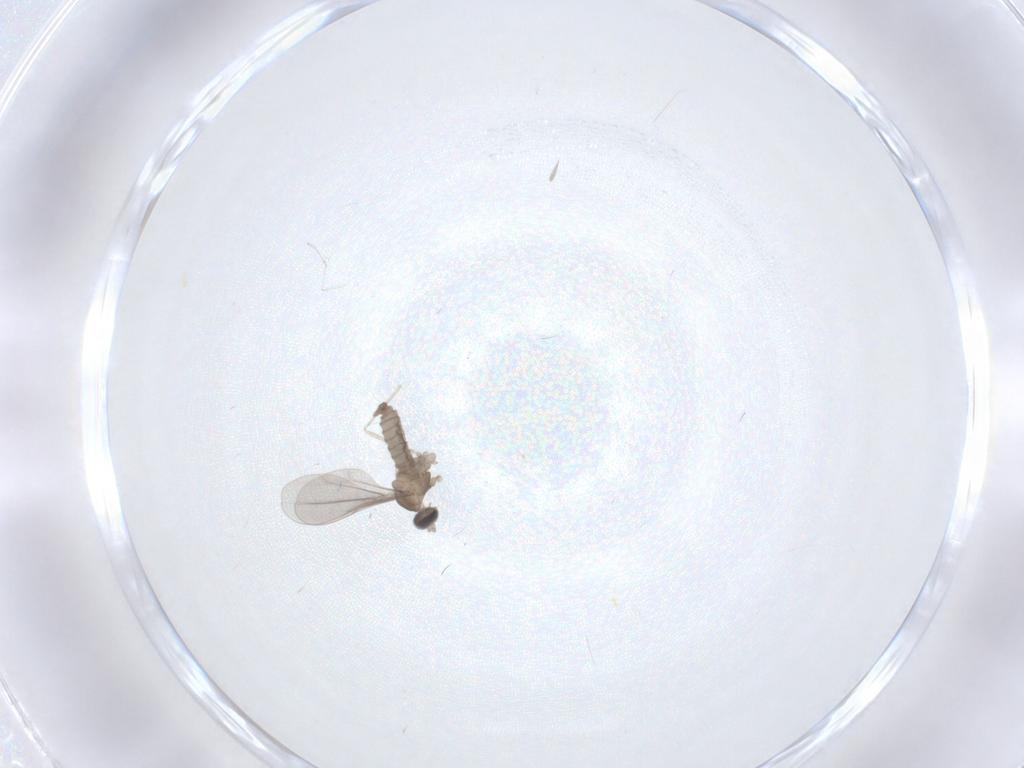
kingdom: Animalia
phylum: Arthropoda
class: Insecta
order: Diptera
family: Cecidomyiidae
